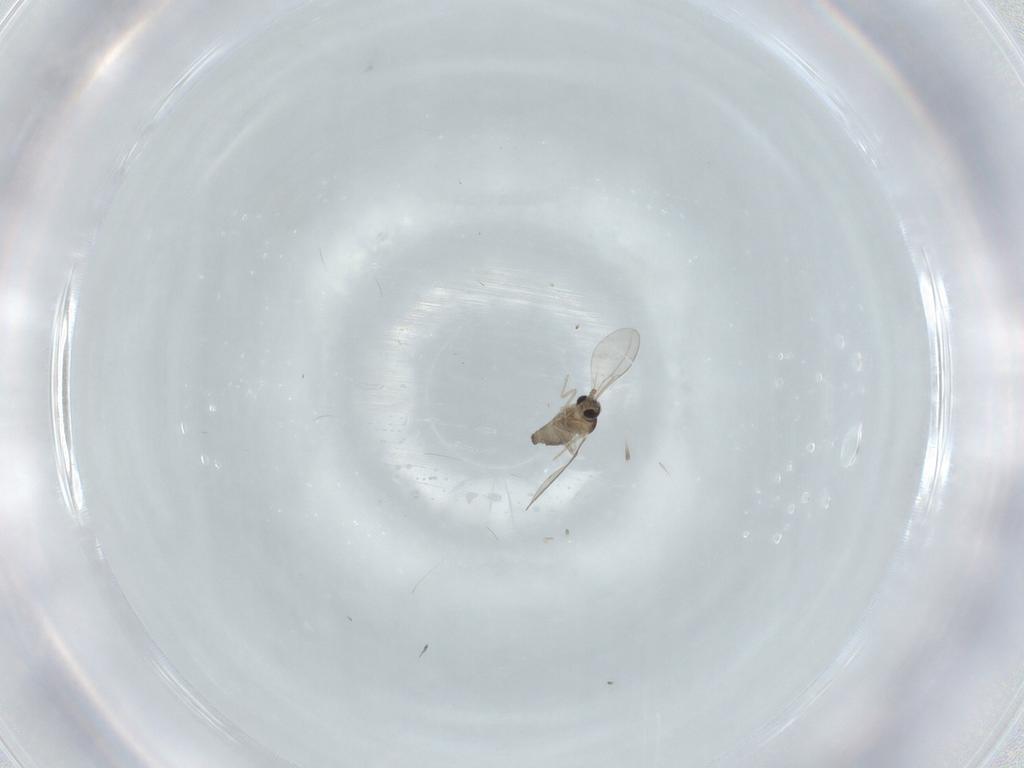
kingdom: Animalia
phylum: Arthropoda
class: Insecta
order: Diptera
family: Cecidomyiidae
